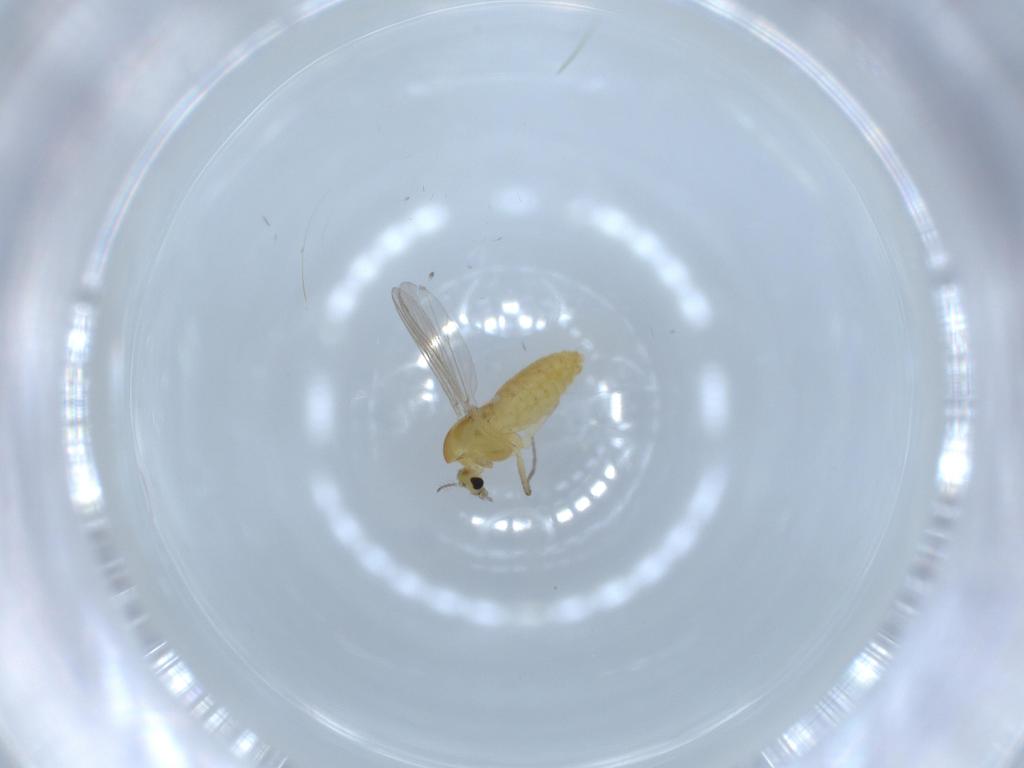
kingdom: Animalia
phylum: Arthropoda
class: Insecta
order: Diptera
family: Chironomidae
